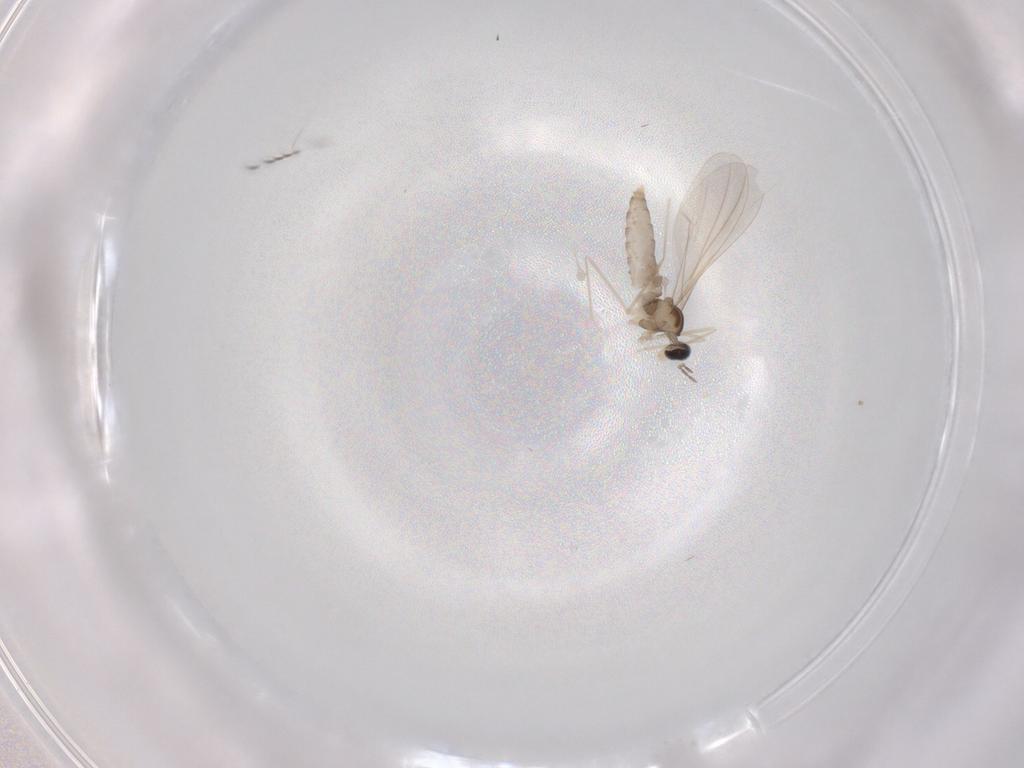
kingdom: Animalia
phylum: Arthropoda
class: Insecta
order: Diptera
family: Cecidomyiidae
